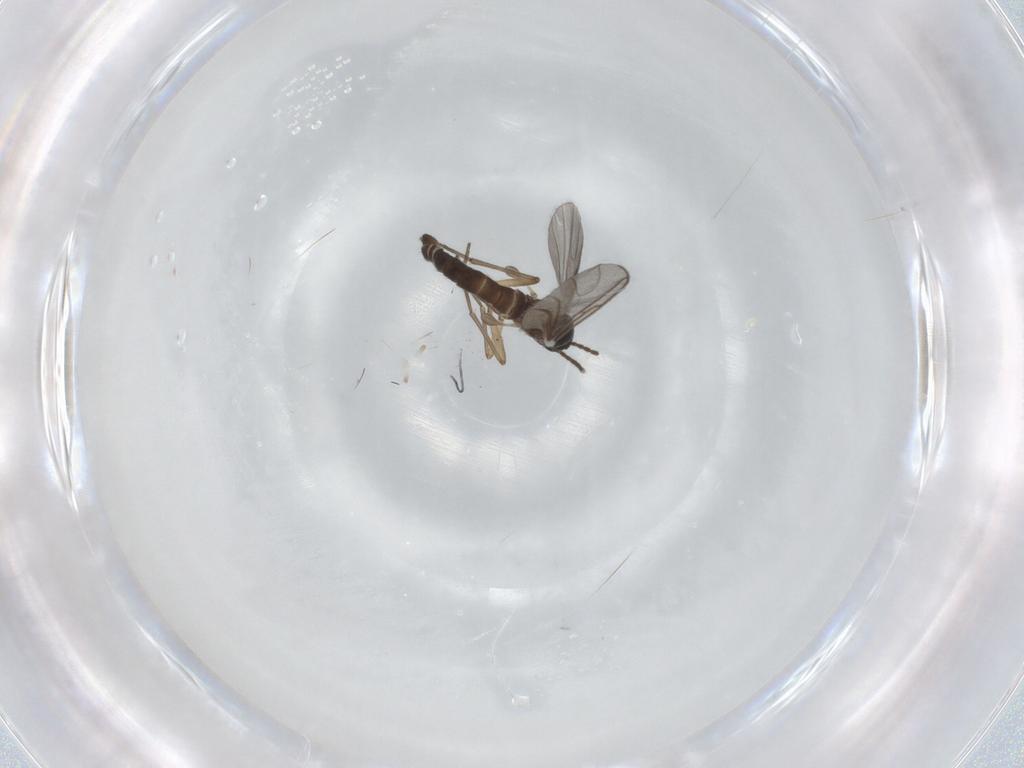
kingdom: Animalia
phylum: Arthropoda
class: Insecta
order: Diptera
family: Sciaridae
